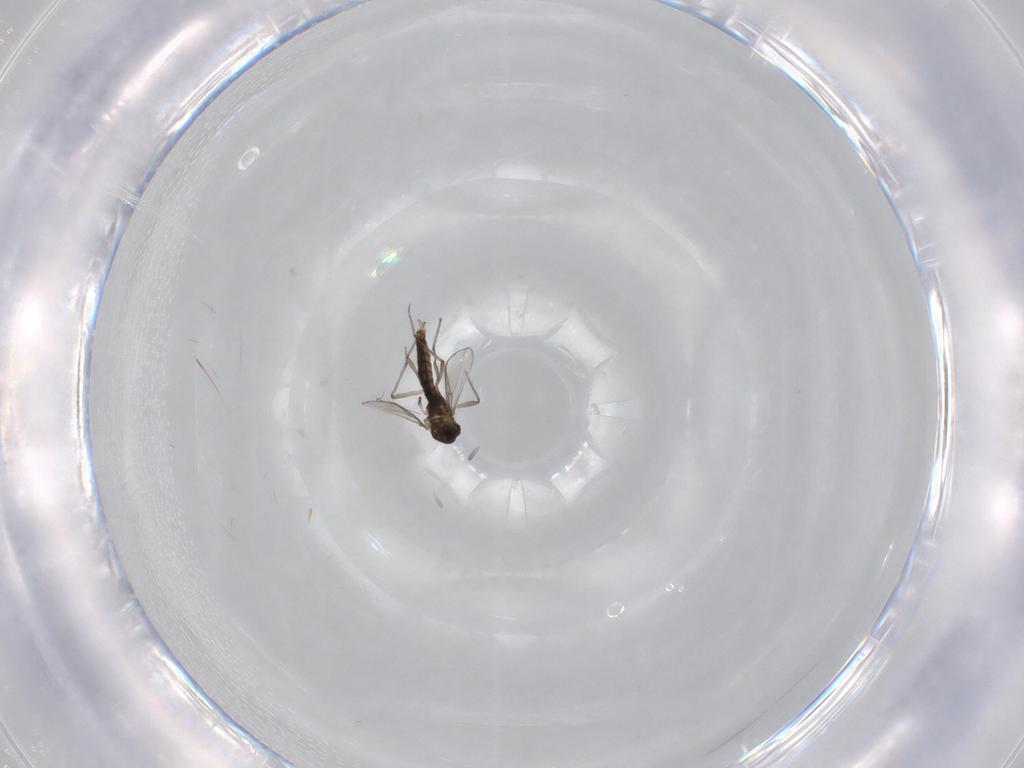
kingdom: Animalia
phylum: Arthropoda
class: Insecta
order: Diptera
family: Chironomidae
